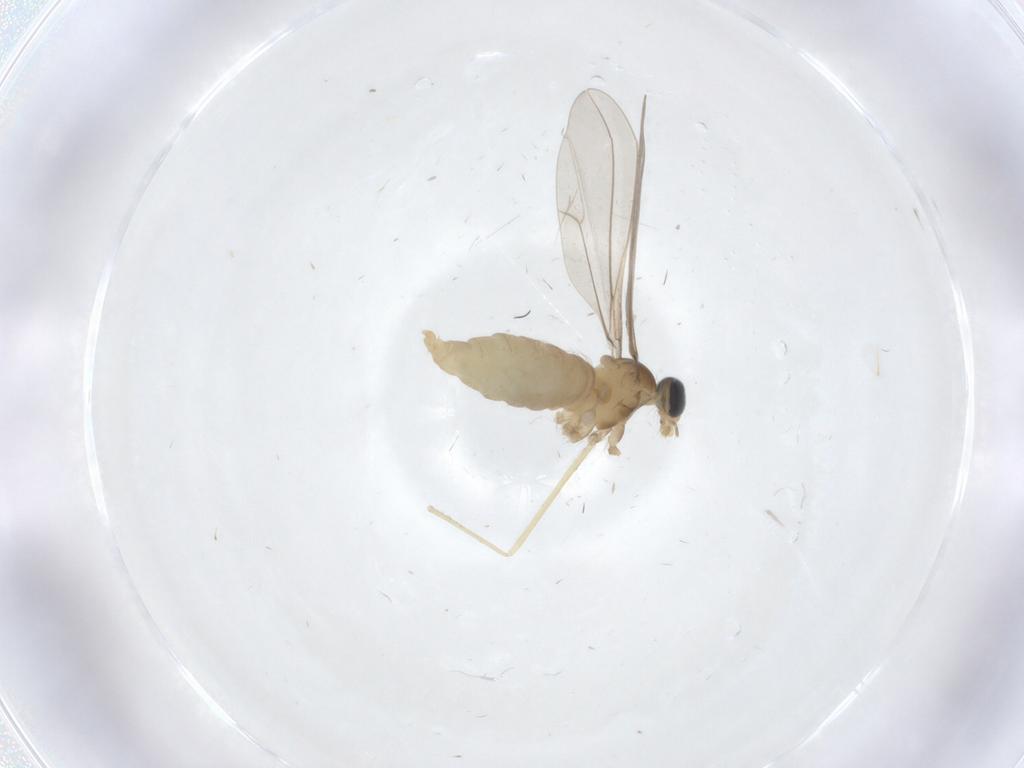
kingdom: Animalia
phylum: Arthropoda
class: Insecta
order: Diptera
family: Cecidomyiidae
